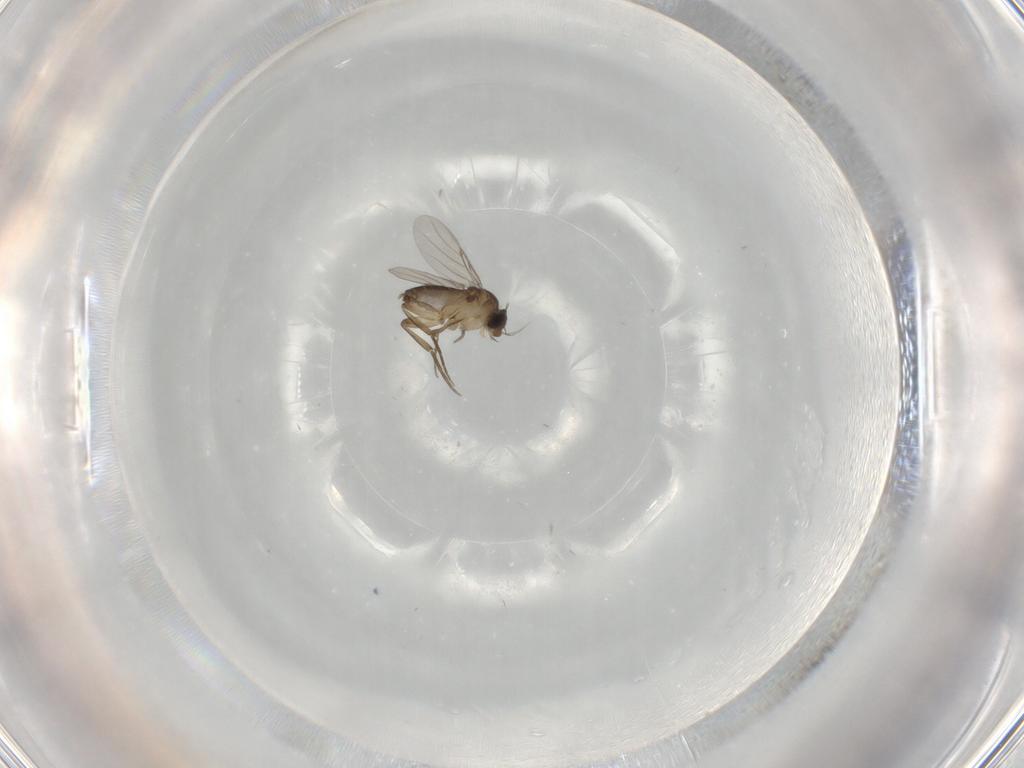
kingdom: Animalia
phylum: Arthropoda
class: Insecta
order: Diptera
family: Phoridae
